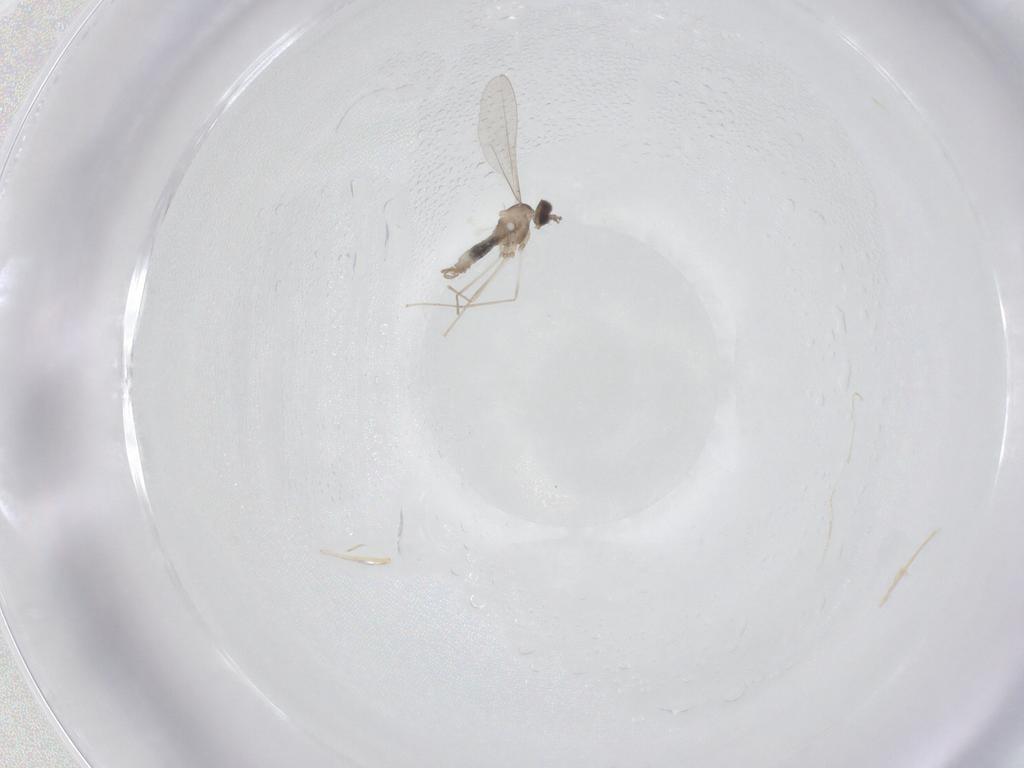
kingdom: Animalia
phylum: Arthropoda
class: Insecta
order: Diptera
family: Cecidomyiidae
